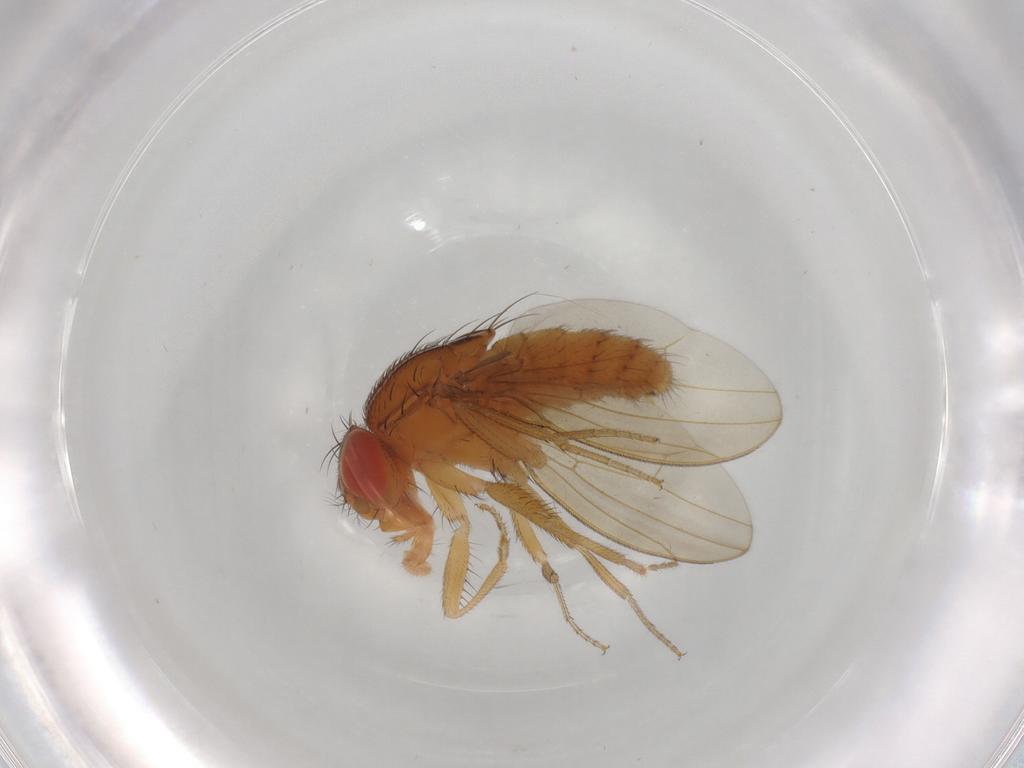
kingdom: Animalia
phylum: Arthropoda
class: Insecta
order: Diptera
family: Drosophilidae
